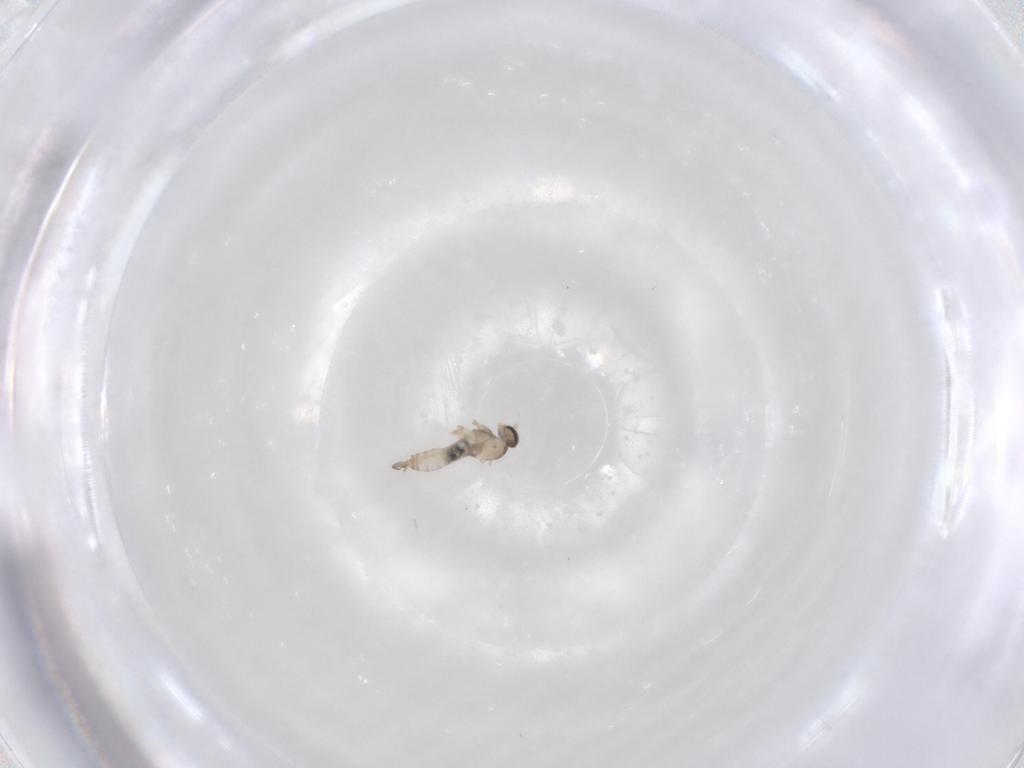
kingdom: Animalia
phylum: Arthropoda
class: Insecta
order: Diptera
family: Cecidomyiidae
